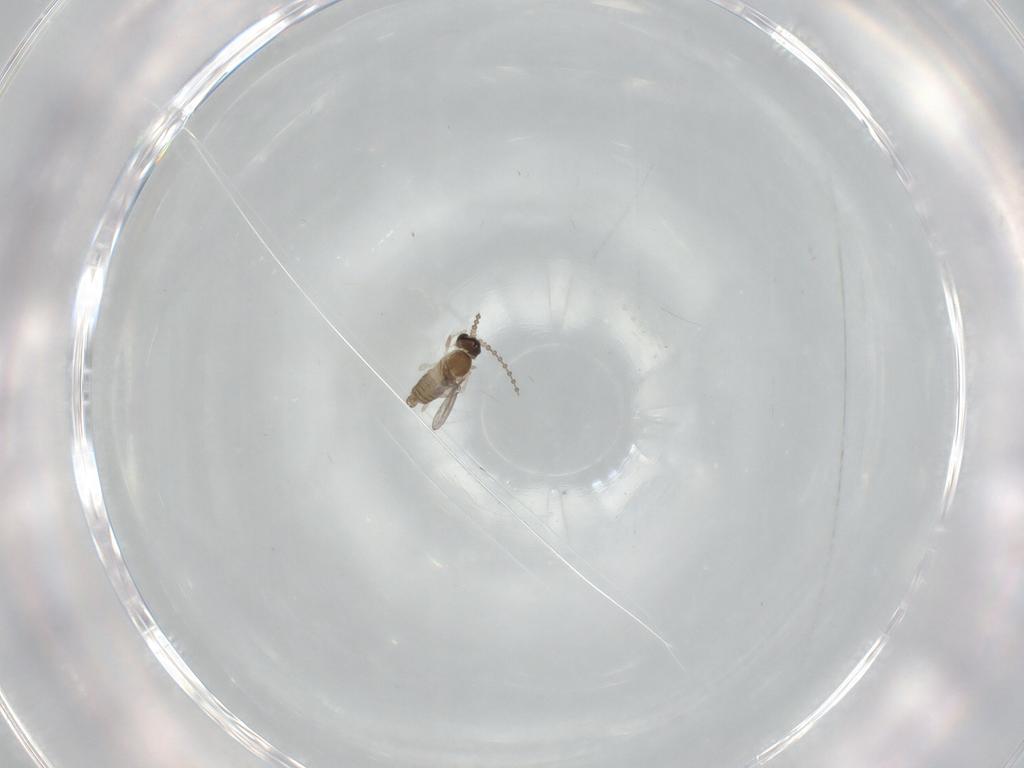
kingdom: Animalia
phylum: Arthropoda
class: Insecta
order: Diptera
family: Cecidomyiidae
